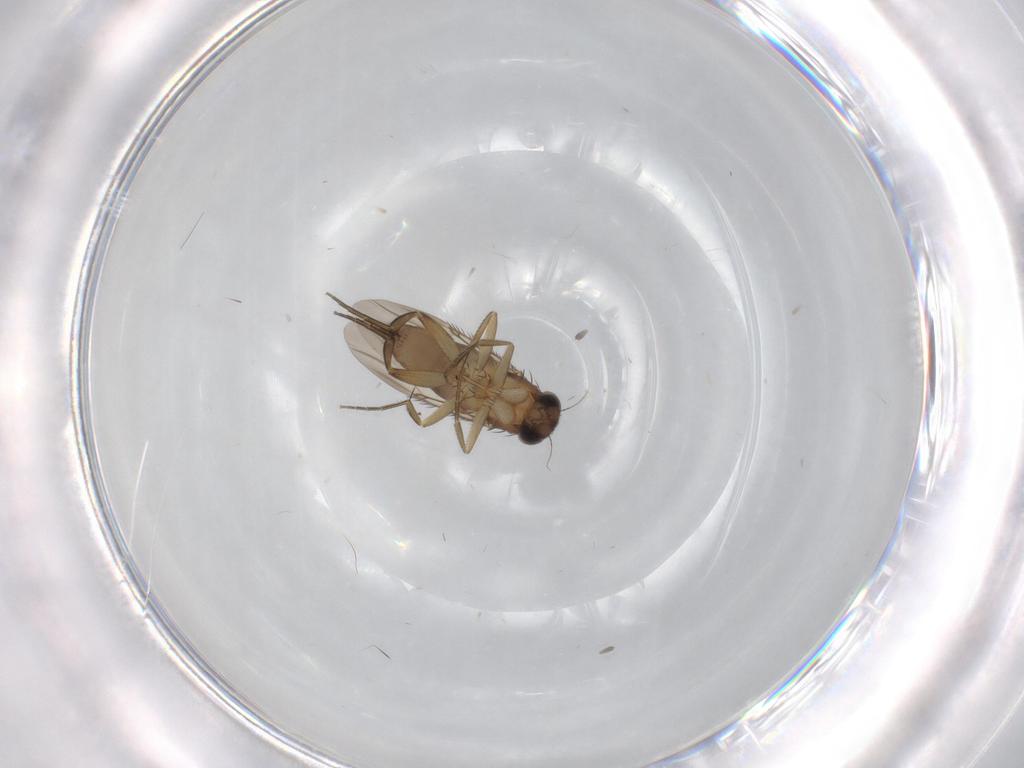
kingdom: Animalia
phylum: Arthropoda
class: Insecta
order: Diptera
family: Phoridae
